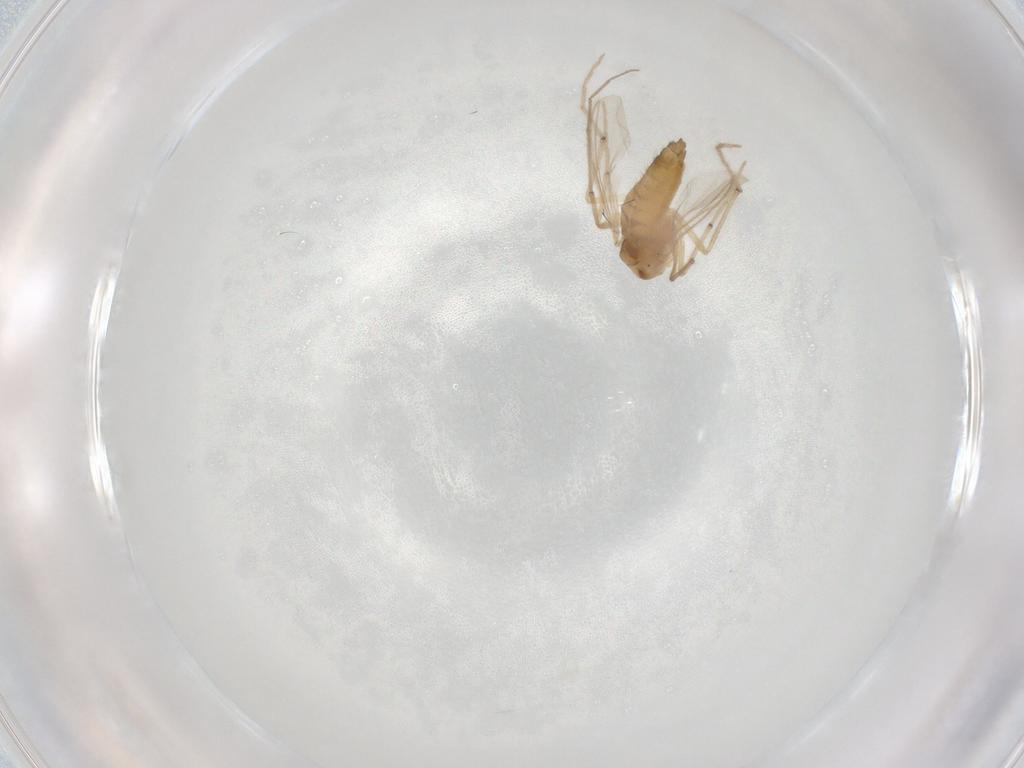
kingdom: Animalia
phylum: Arthropoda
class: Insecta
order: Diptera
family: Chironomidae
